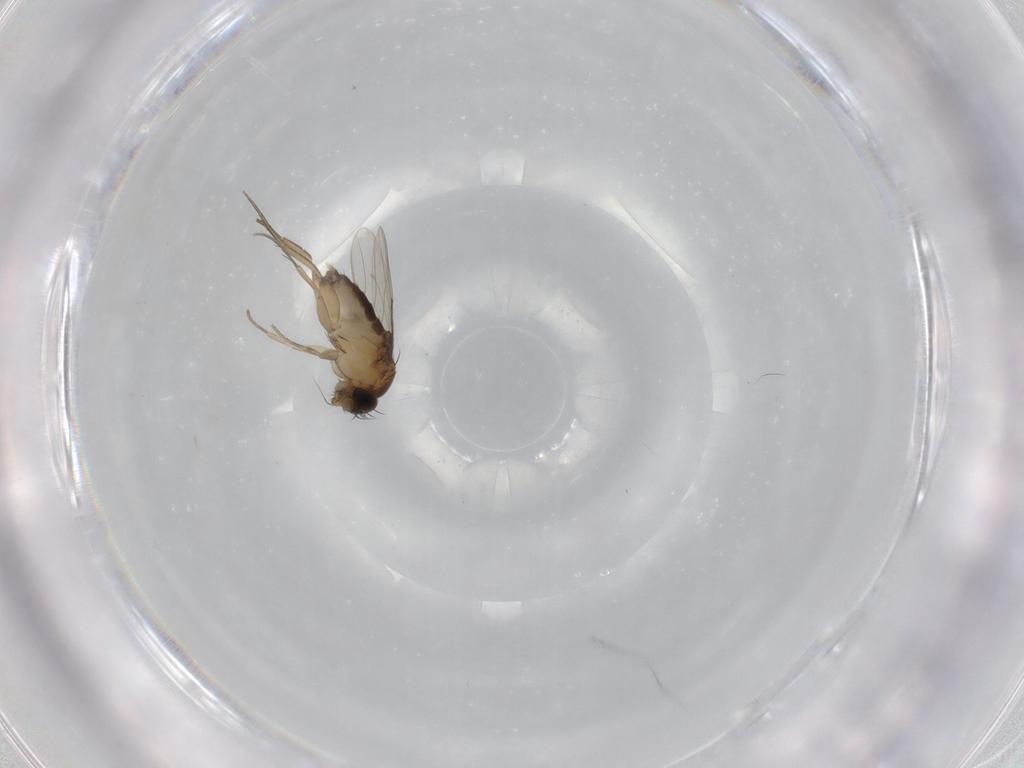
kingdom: Animalia
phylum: Arthropoda
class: Insecta
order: Diptera
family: Phoridae
